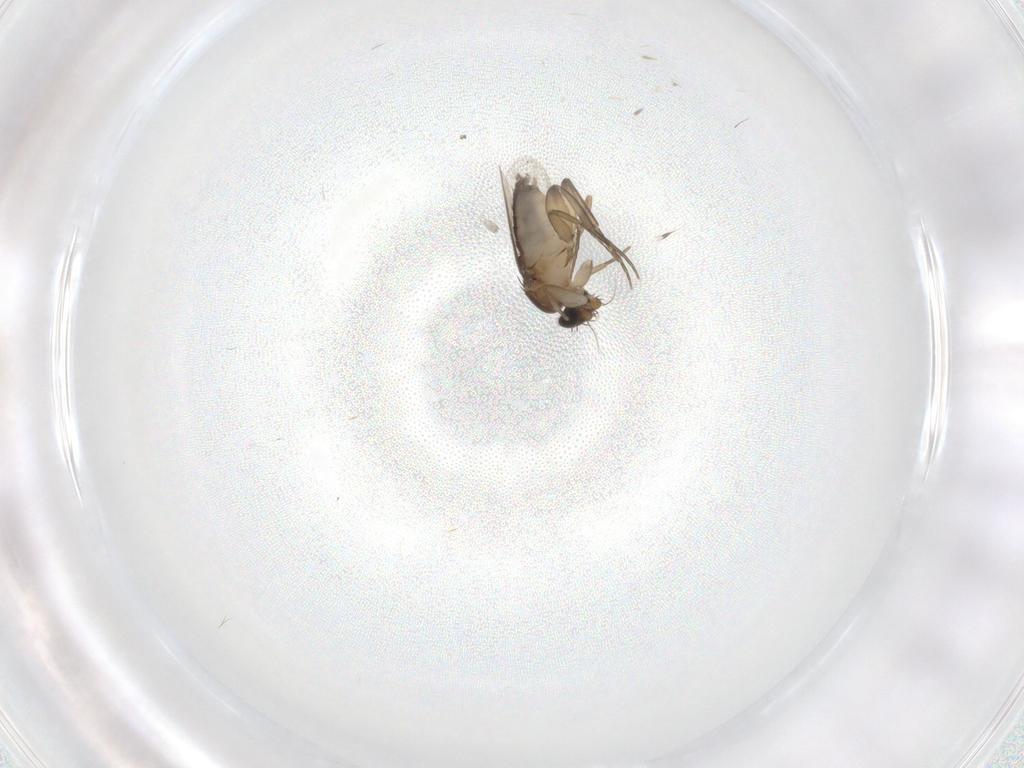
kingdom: Animalia
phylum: Arthropoda
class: Insecta
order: Diptera
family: Phoridae
